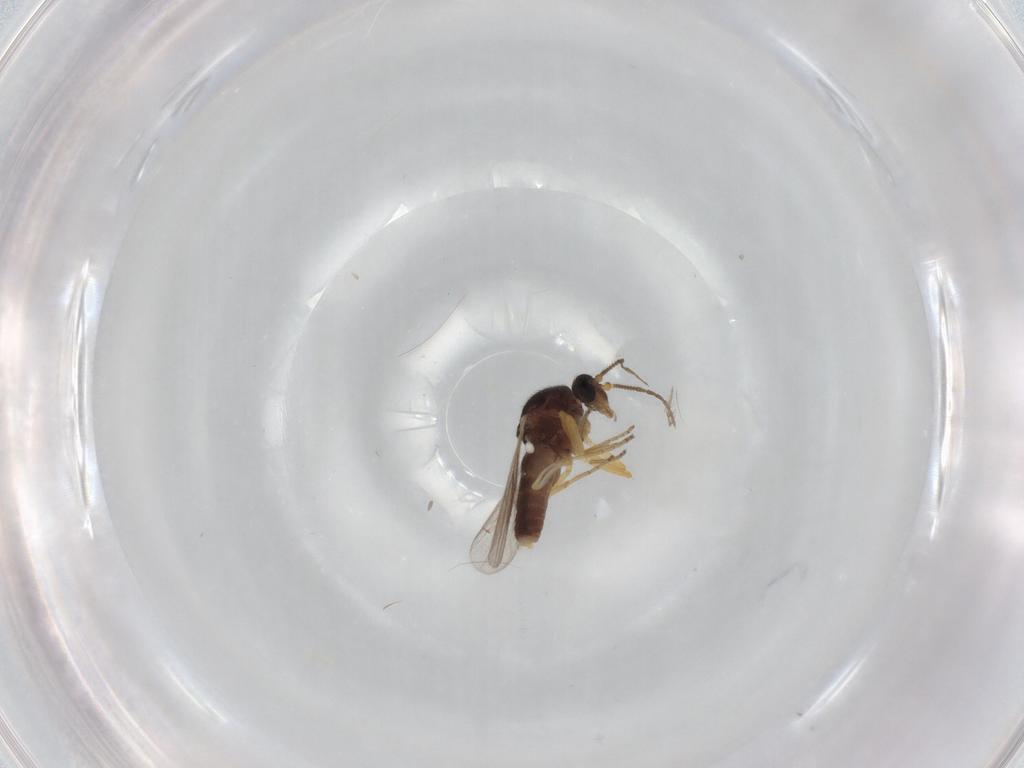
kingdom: Animalia
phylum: Arthropoda
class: Insecta
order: Diptera
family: Ceratopogonidae
